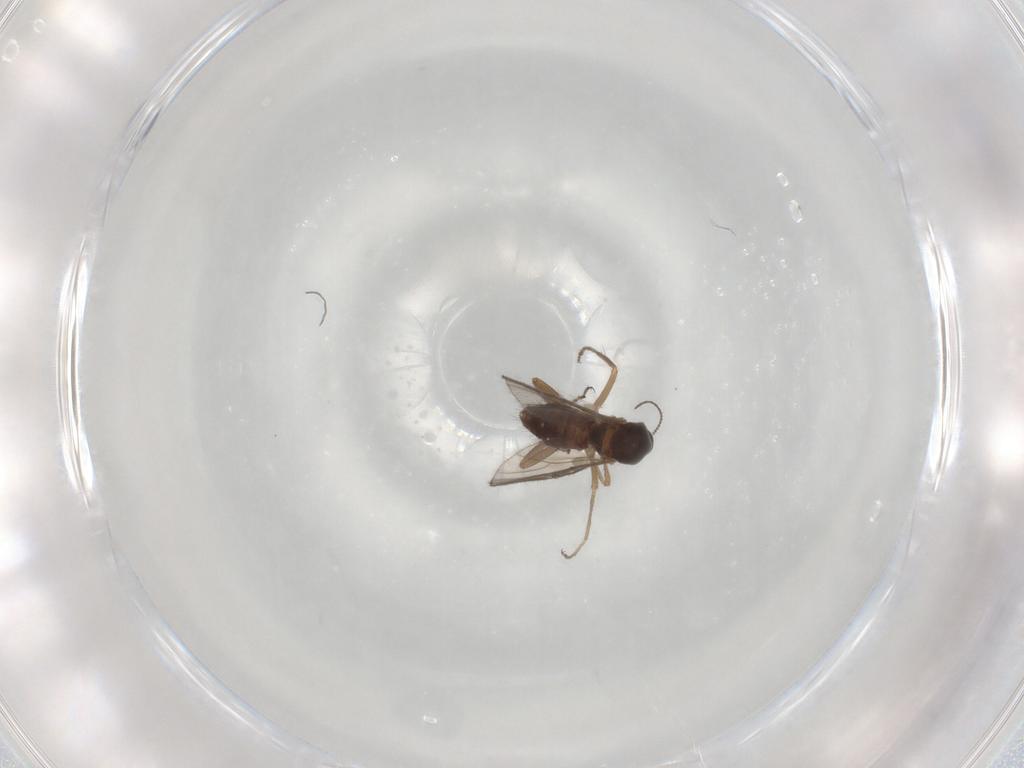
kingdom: Animalia
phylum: Arthropoda
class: Insecta
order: Diptera
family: Ceratopogonidae
